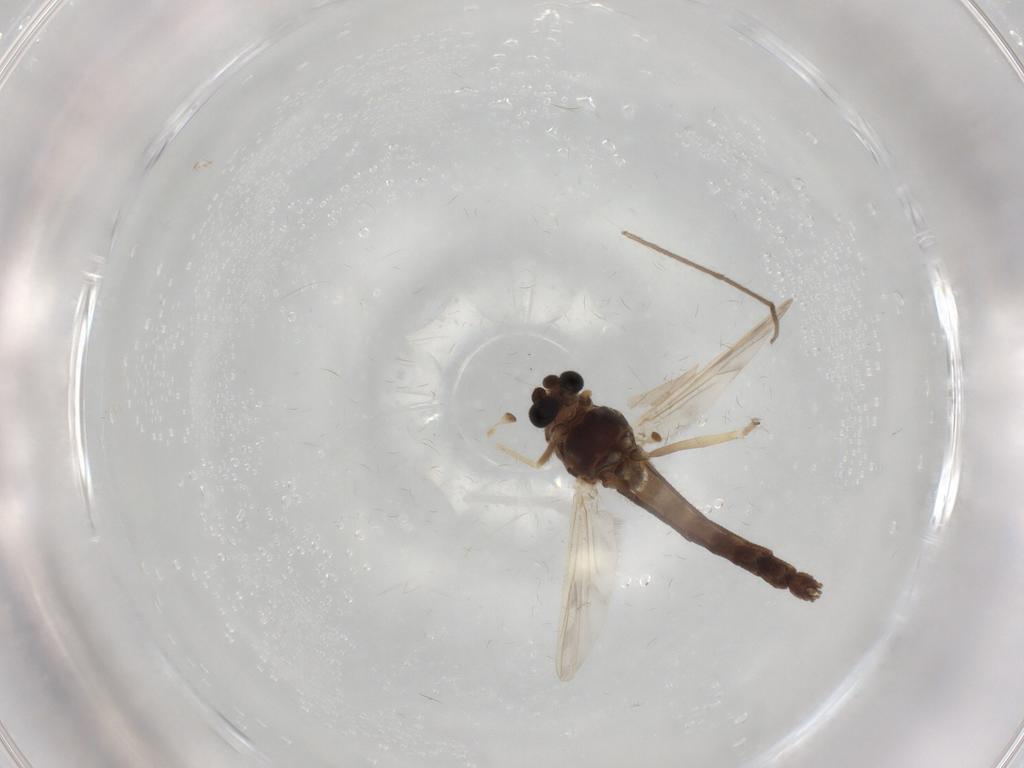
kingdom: Animalia
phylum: Arthropoda
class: Insecta
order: Diptera
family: Chironomidae
